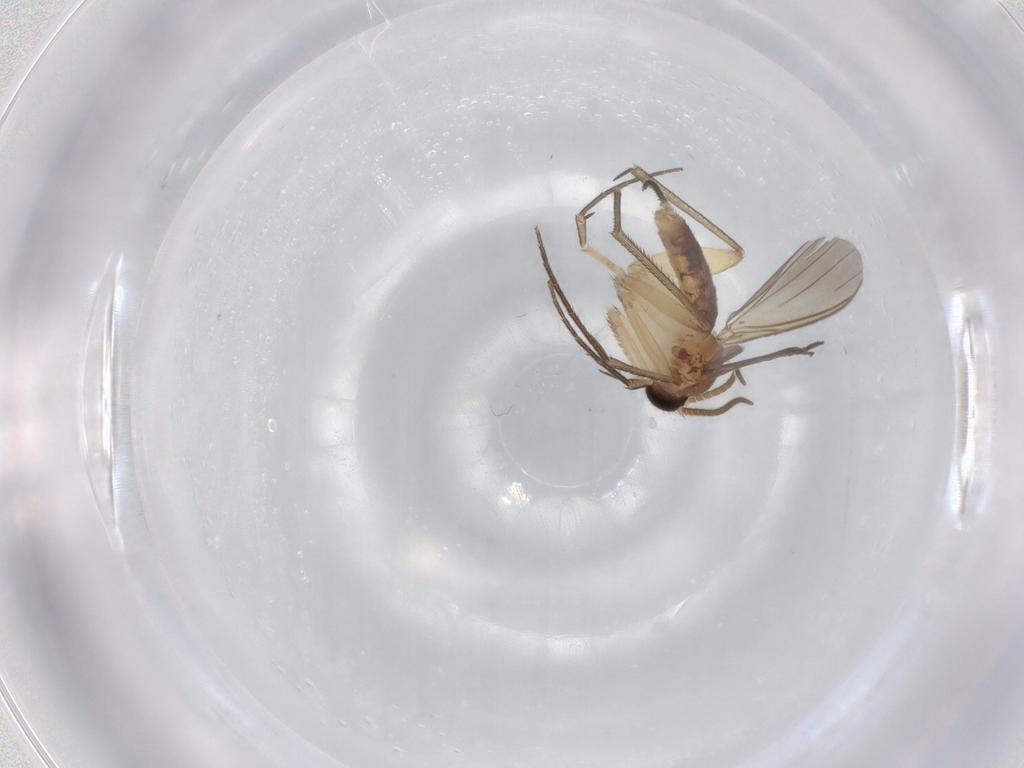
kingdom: Animalia
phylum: Arthropoda
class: Insecta
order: Diptera
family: Mycetophilidae
